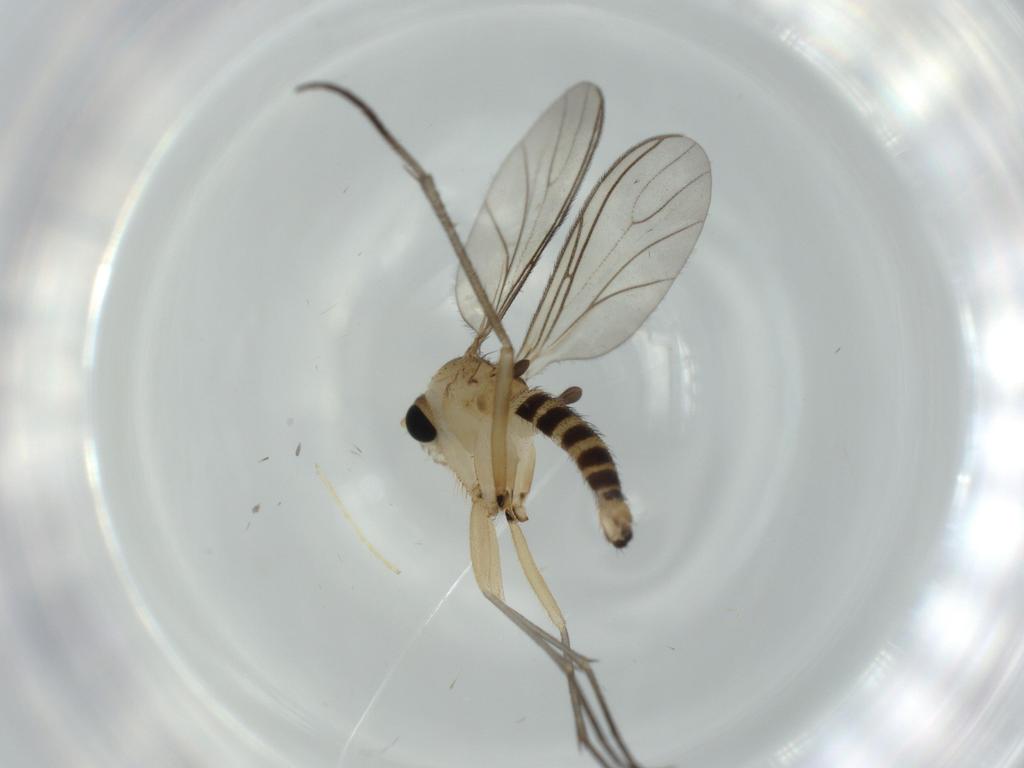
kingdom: Animalia
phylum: Arthropoda
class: Insecta
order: Diptera
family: Sciaridae
